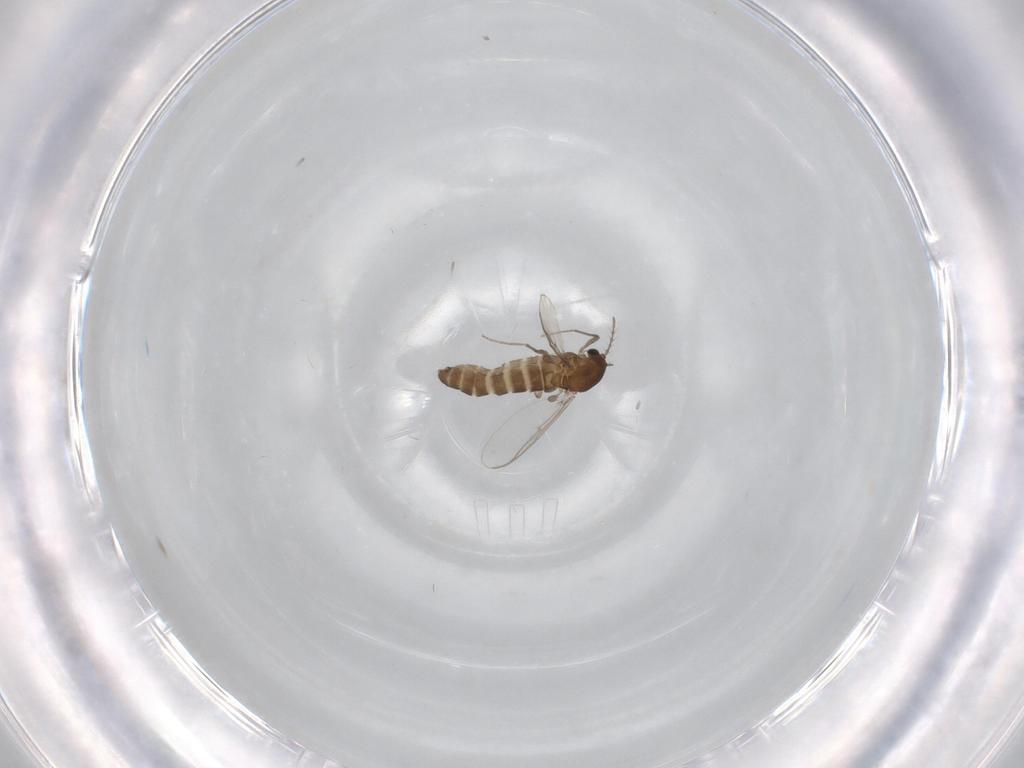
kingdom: Animalia
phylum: Arthropoda
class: Insecta
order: Diptera
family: Chironomidae
